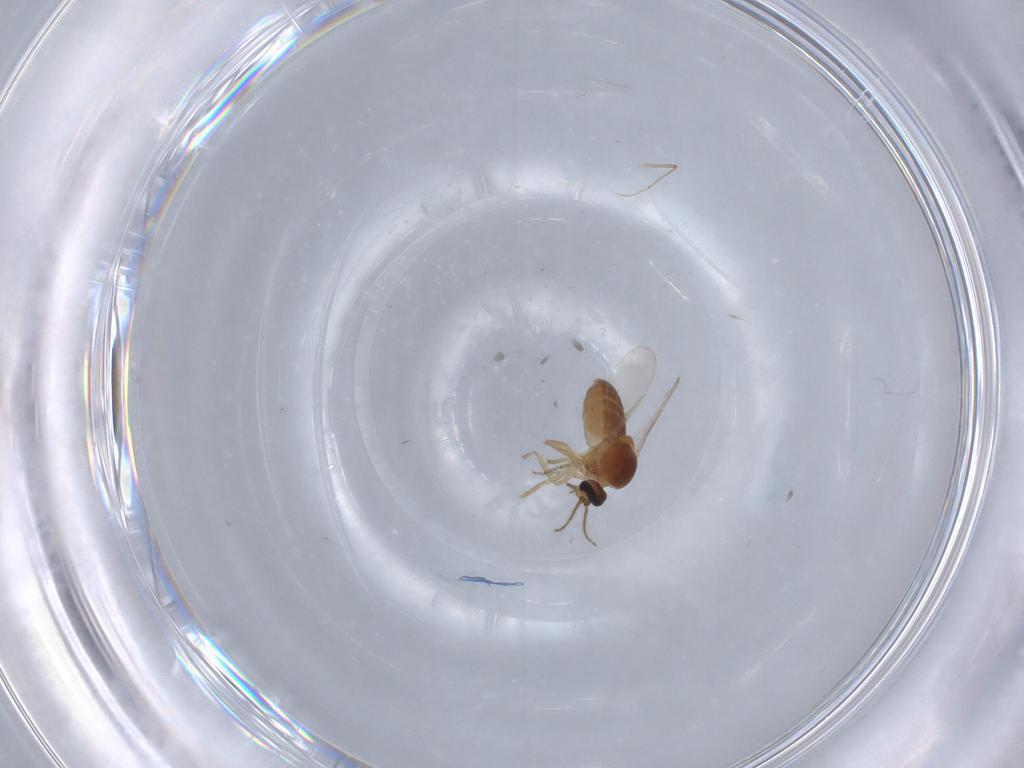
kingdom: Animalia
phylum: Arthropoda
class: Insecta
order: Diptera
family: Ceratopogonidae
